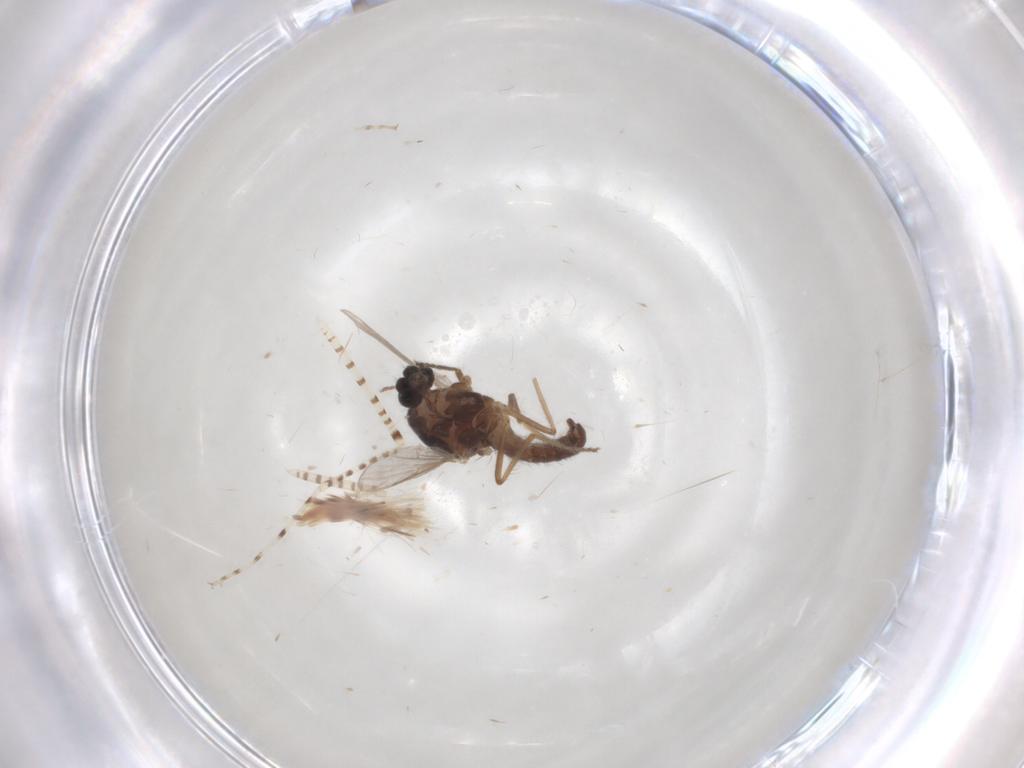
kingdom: Animalia
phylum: Arthropoda
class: Insecta
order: Diptera
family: Ceratopogonidae
